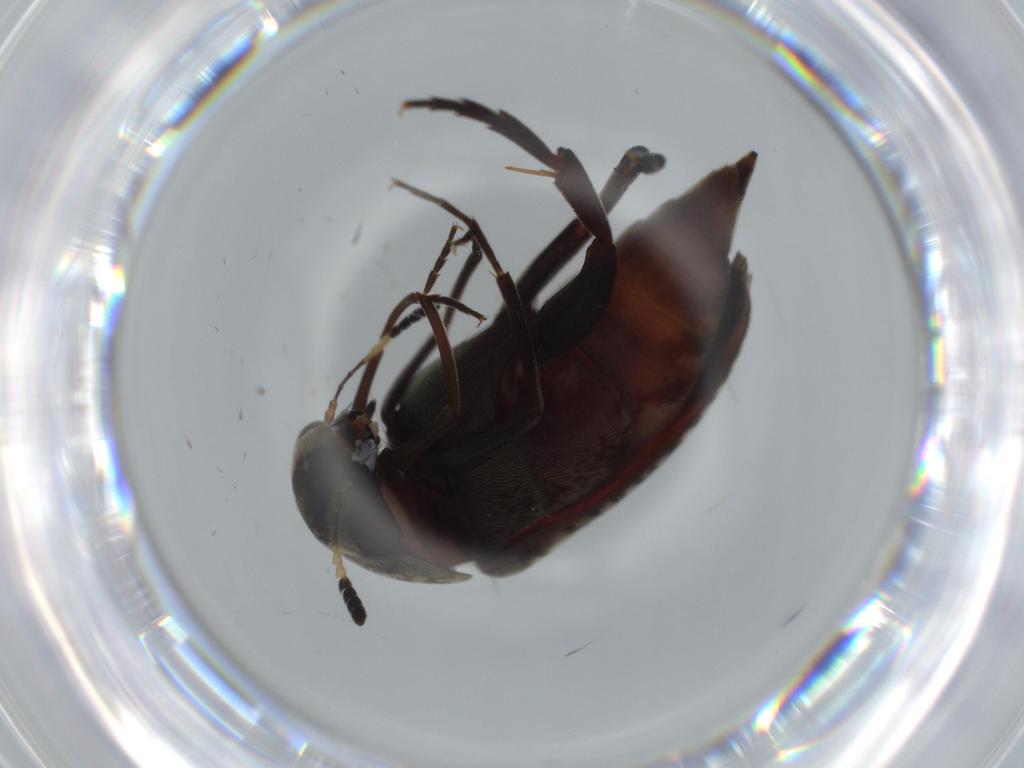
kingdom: Animalia
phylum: Arthropoda
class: Insecta
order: Coleoptera
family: Coccinellidae
